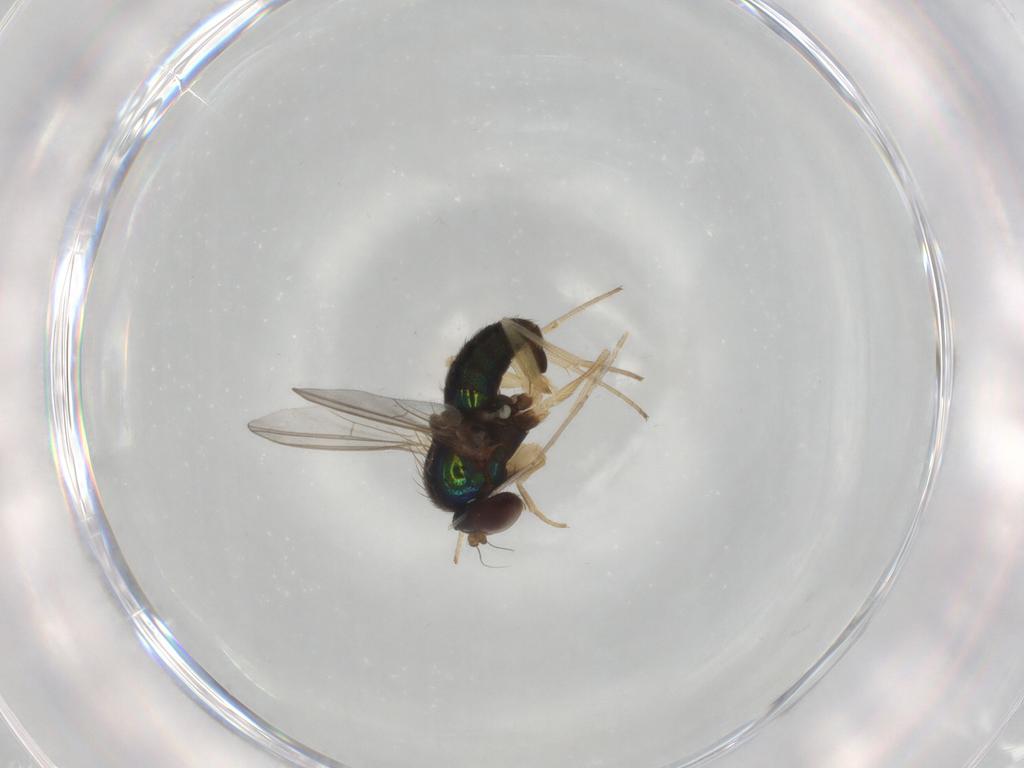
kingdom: Animalia
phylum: Arthropoda
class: Insecta
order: Diptera
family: Dolichopodidae
